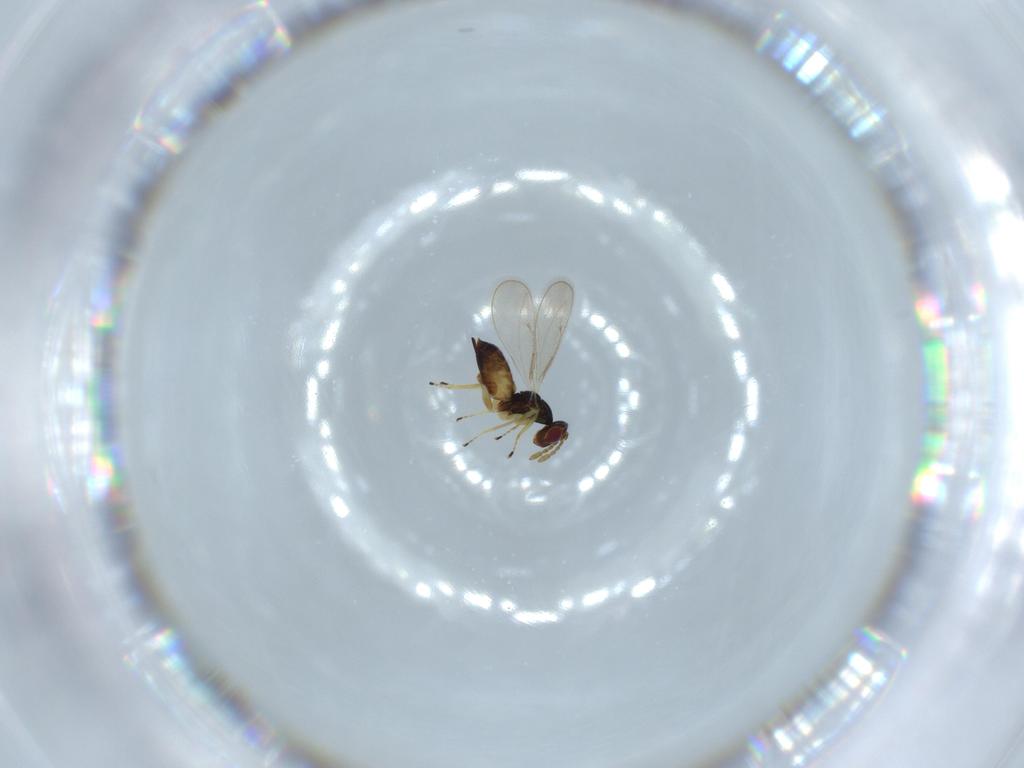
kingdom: Animalia
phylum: Arthropoda
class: Insecta
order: Hymenoptera
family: Eulophidae
